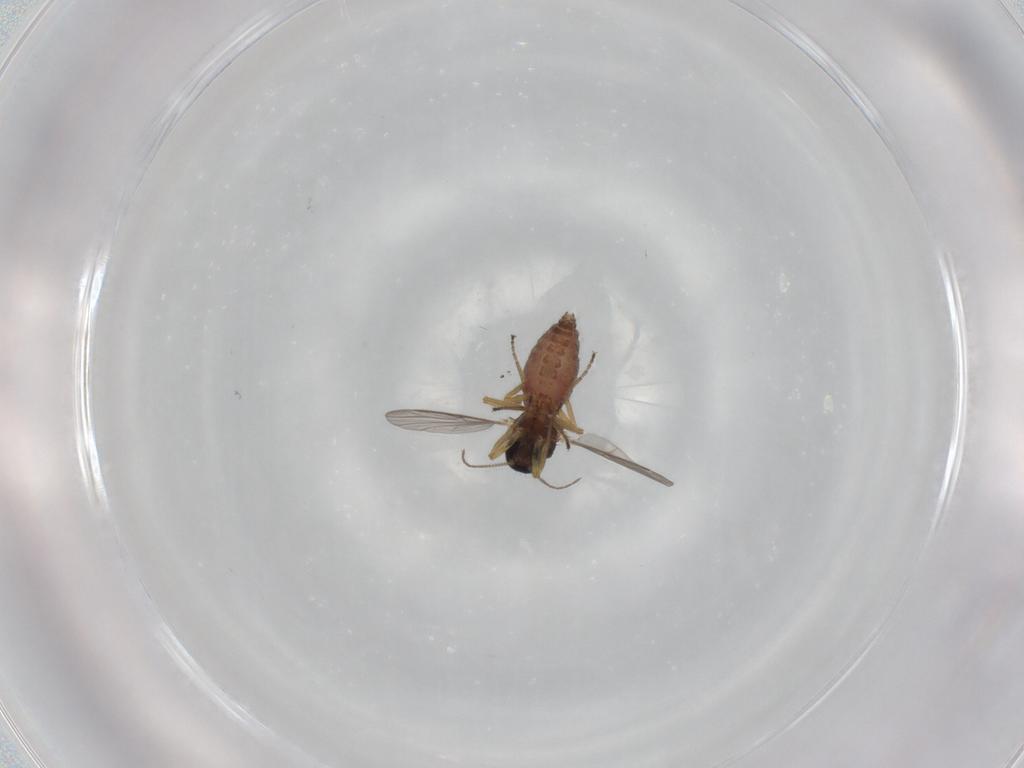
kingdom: Animalia
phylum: Arthropoda
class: Insecta
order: Diptera
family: Ceratopogonidae
